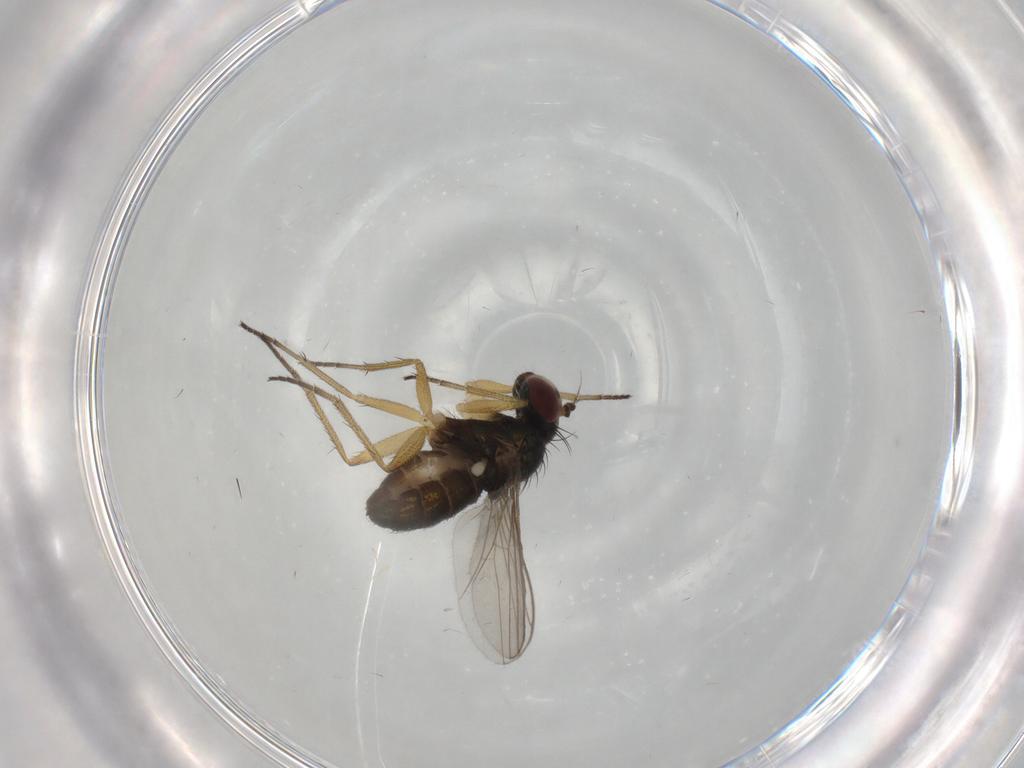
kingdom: Animalia
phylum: Arthropoda
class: Insecta
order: Diptera
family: Dolichopodidae
